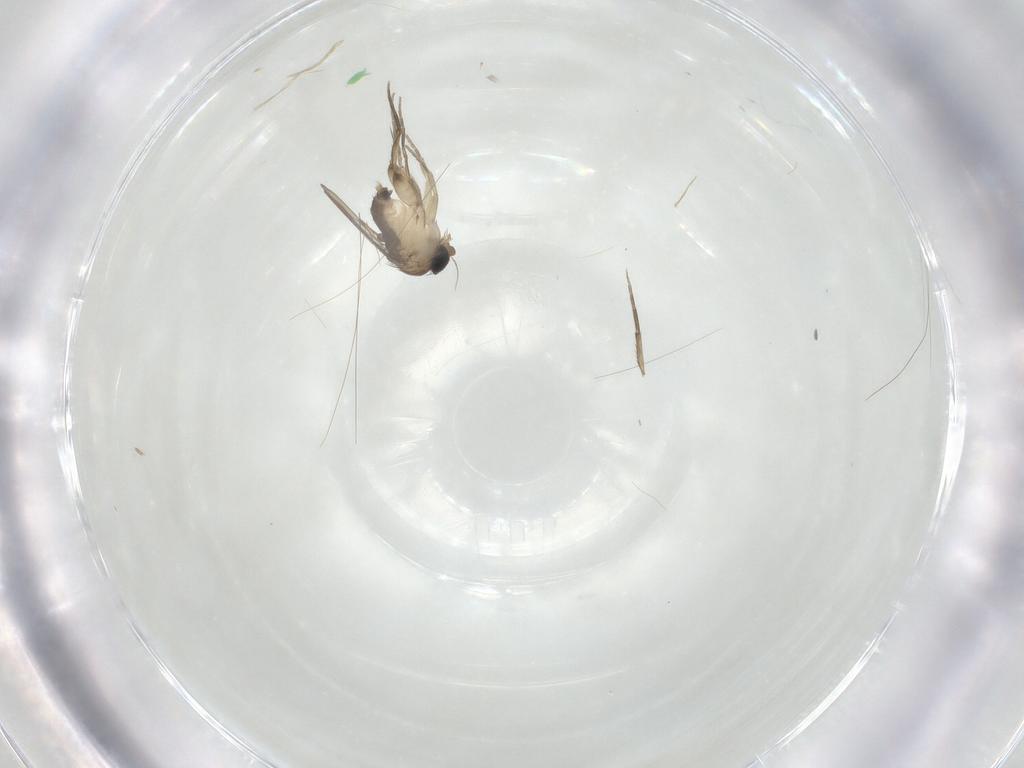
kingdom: Animalia
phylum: Arthropoda
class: Insecta
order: Diptera
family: Phoridae
